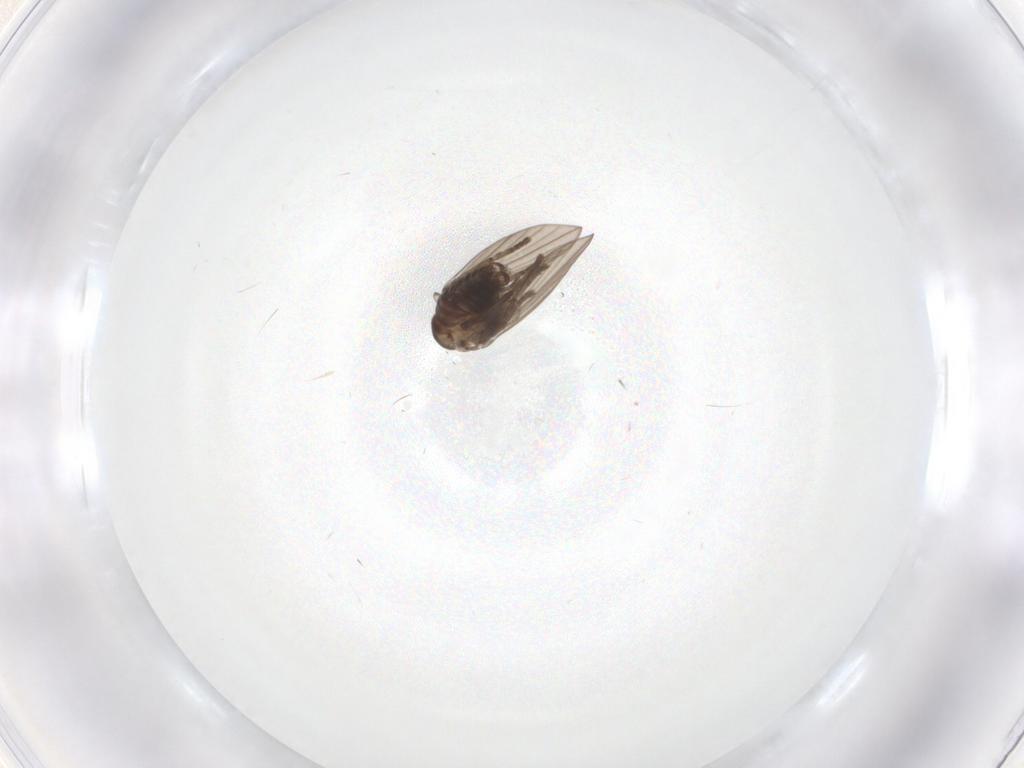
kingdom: Animalia
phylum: Arthropoda
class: Insecta
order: Diptera
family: Psychodidae
